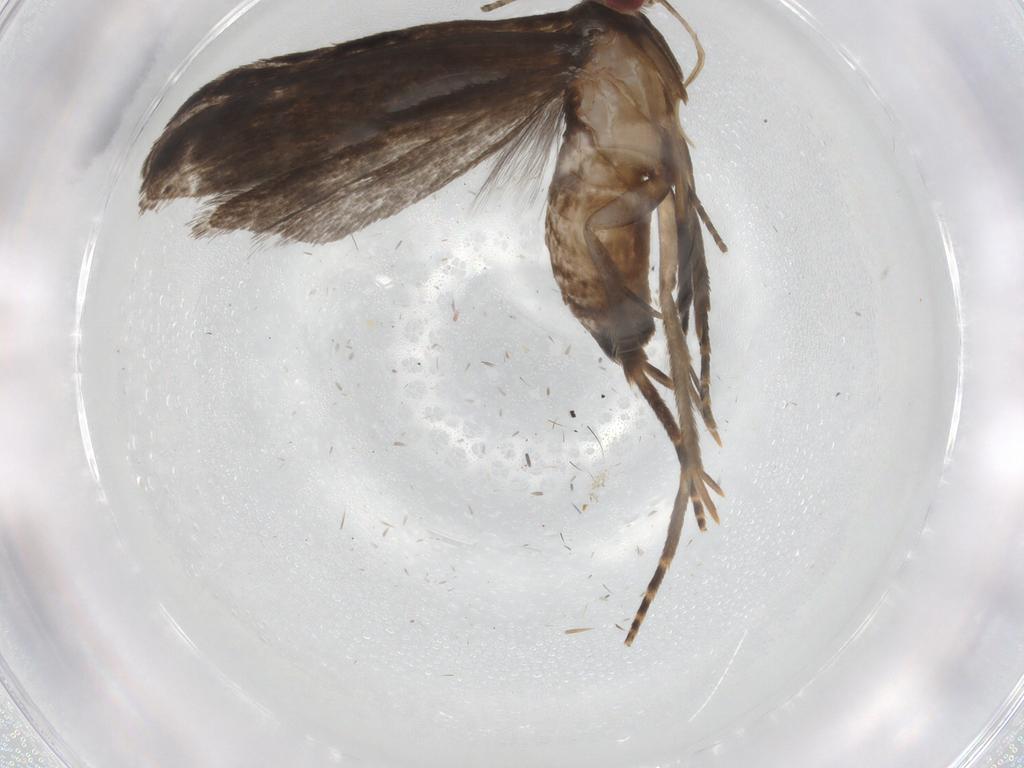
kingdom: Animalia
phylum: Arthropoda
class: Insecta
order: Lepidoptera
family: Gelechiidae
